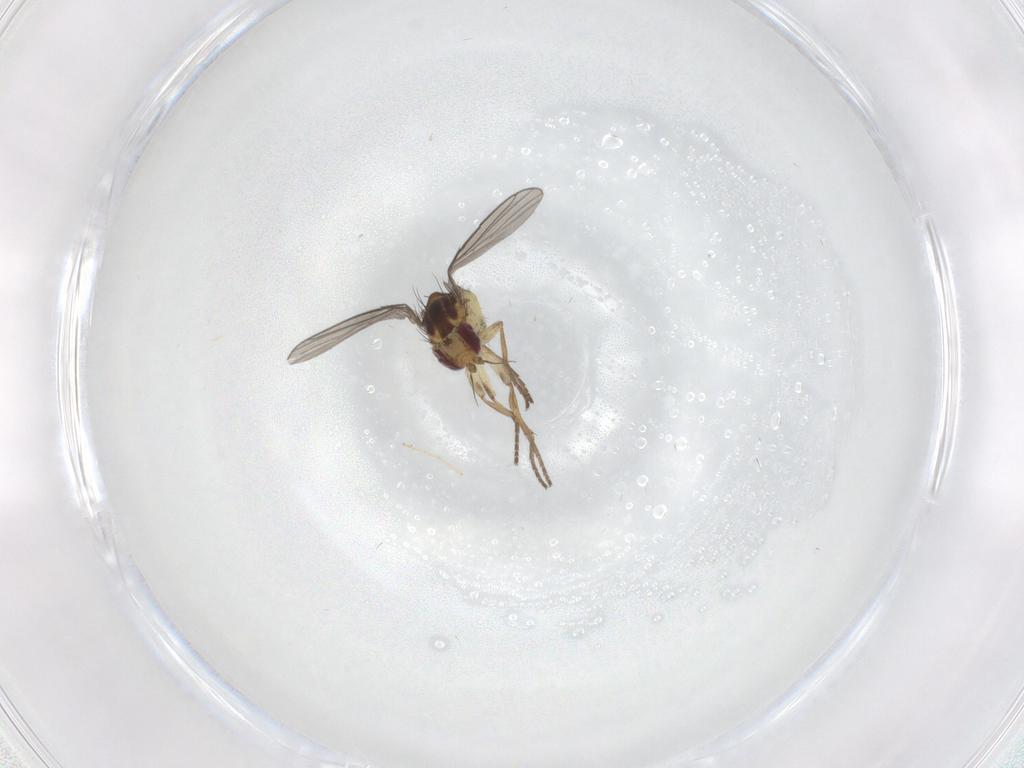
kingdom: Animalia
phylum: Arthropoda
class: Insecta
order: Diptera
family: Agromyzidae
